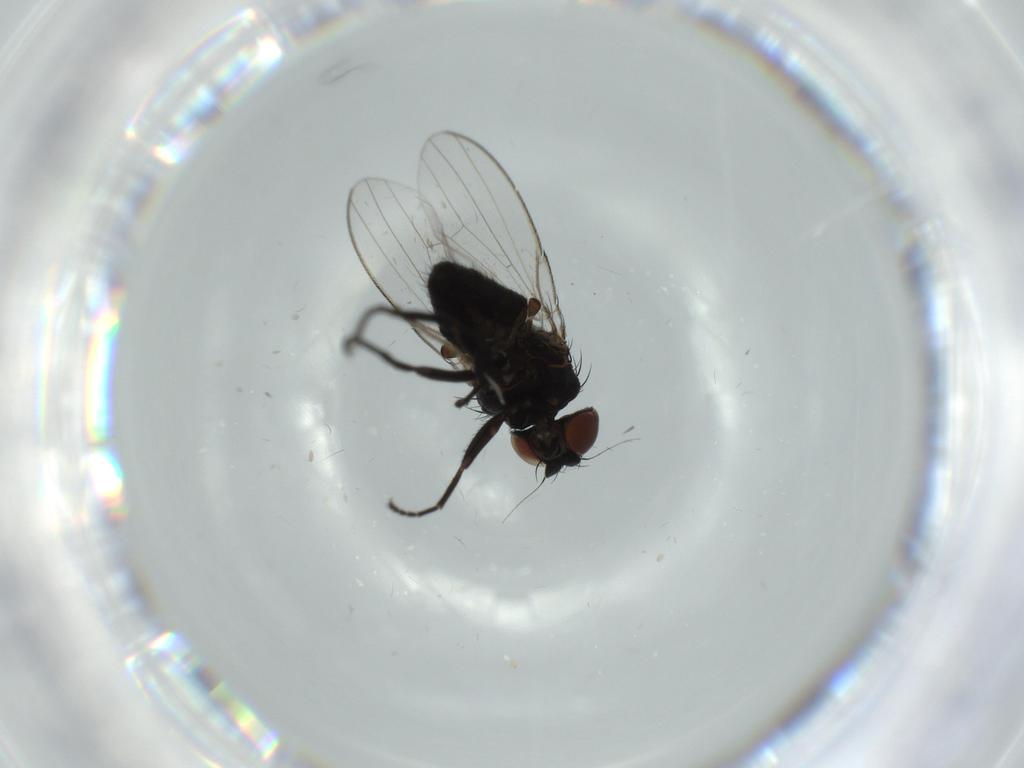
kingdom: Animalia
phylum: Arthropoda
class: Insecta
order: Diptera
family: Milichiidae
